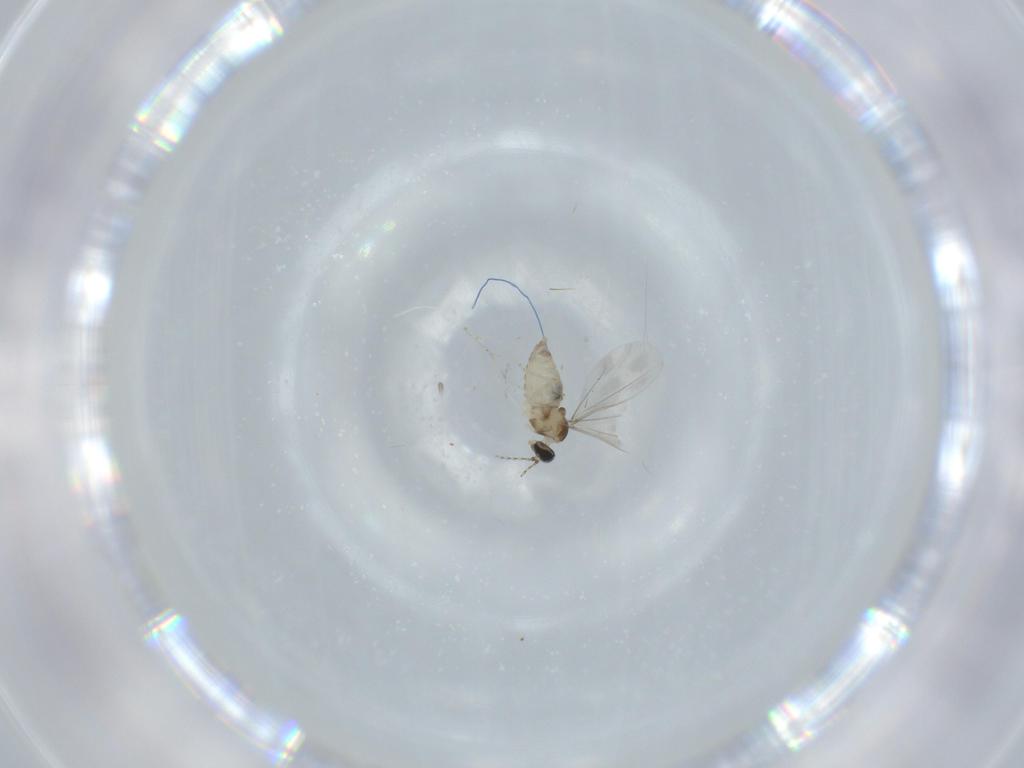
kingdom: Animalia
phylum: Arthropoda
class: Insecta
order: Diptera
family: Cecidomyiidae
